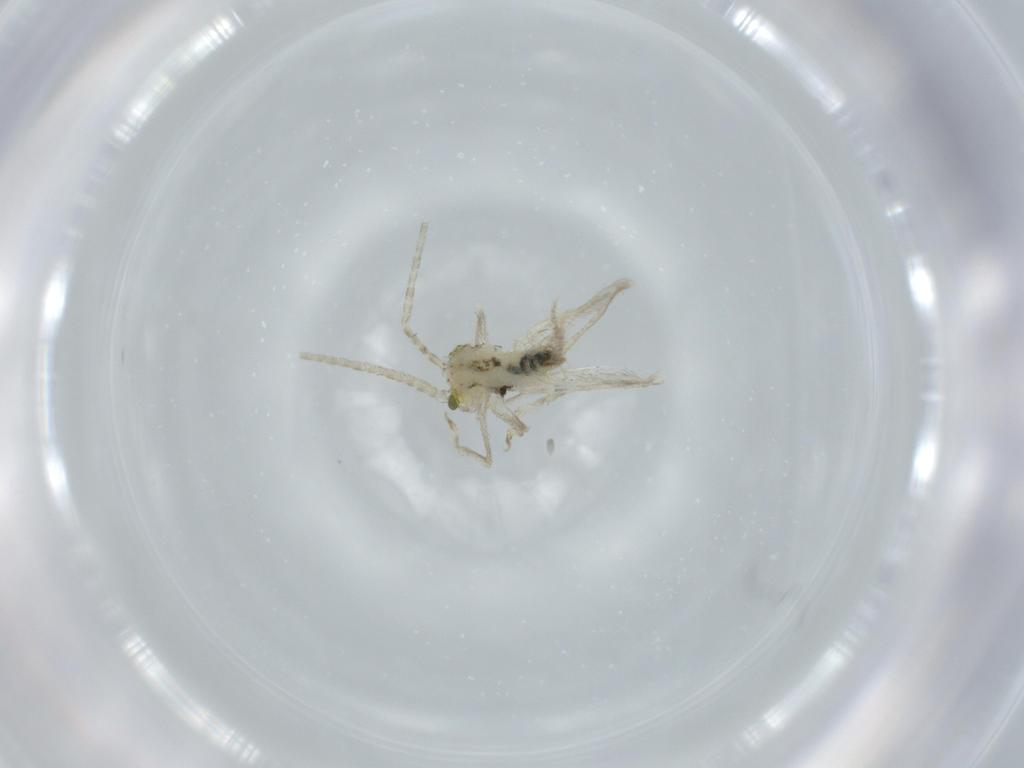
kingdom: Animalia
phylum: Arthropoda
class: Insecta
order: Orthoptera
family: Trigonidiidae
